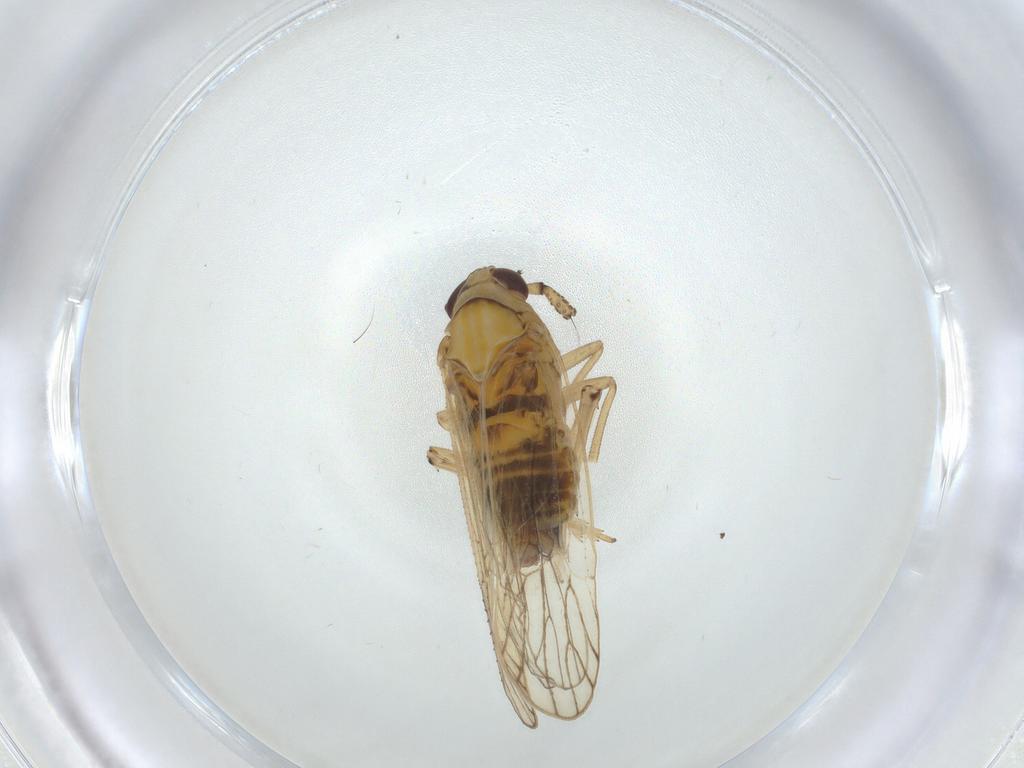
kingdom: Animalia
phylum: Arthropoda
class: Insecta
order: Hemiptera
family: Delphacidae
